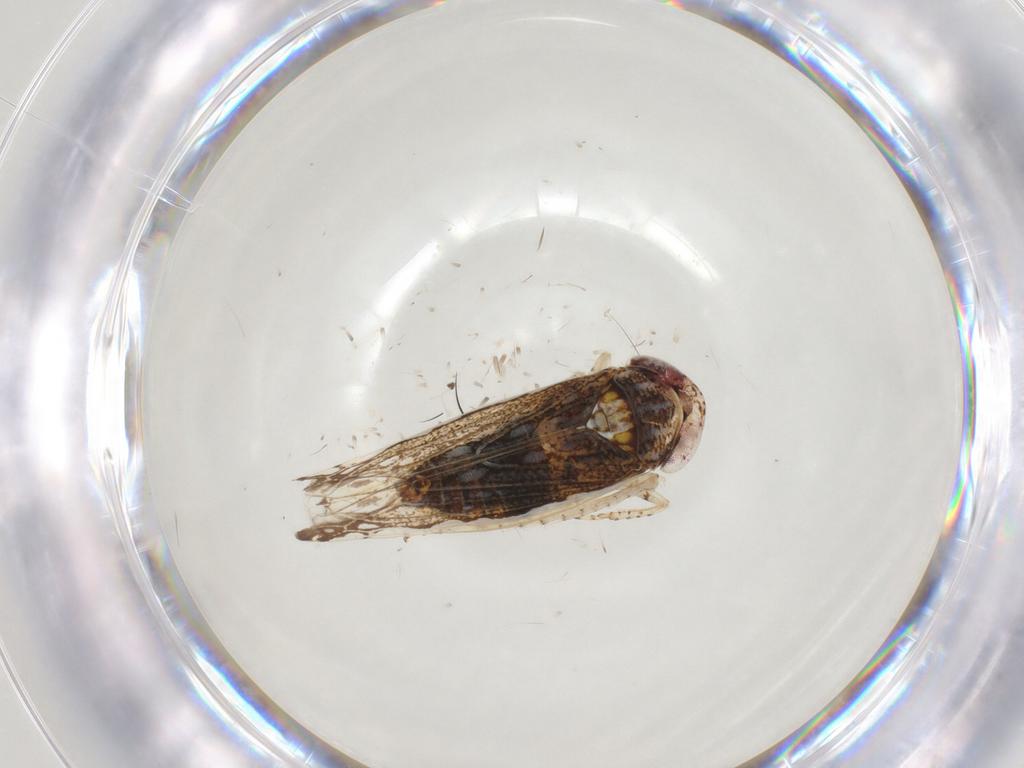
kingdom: Animalia
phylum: Arthropoda
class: Insecta
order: Hemiptera
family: Cicadellidae
